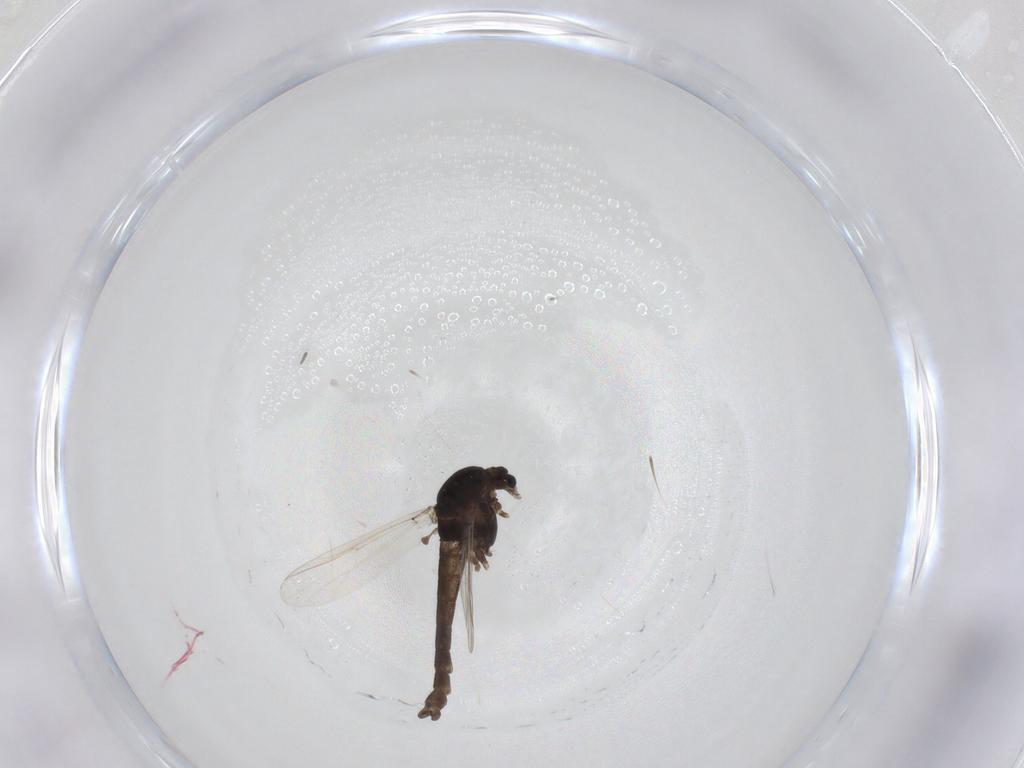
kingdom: Animalia
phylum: Arthropoda
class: Insecta
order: Diptera
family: Chironomidae
